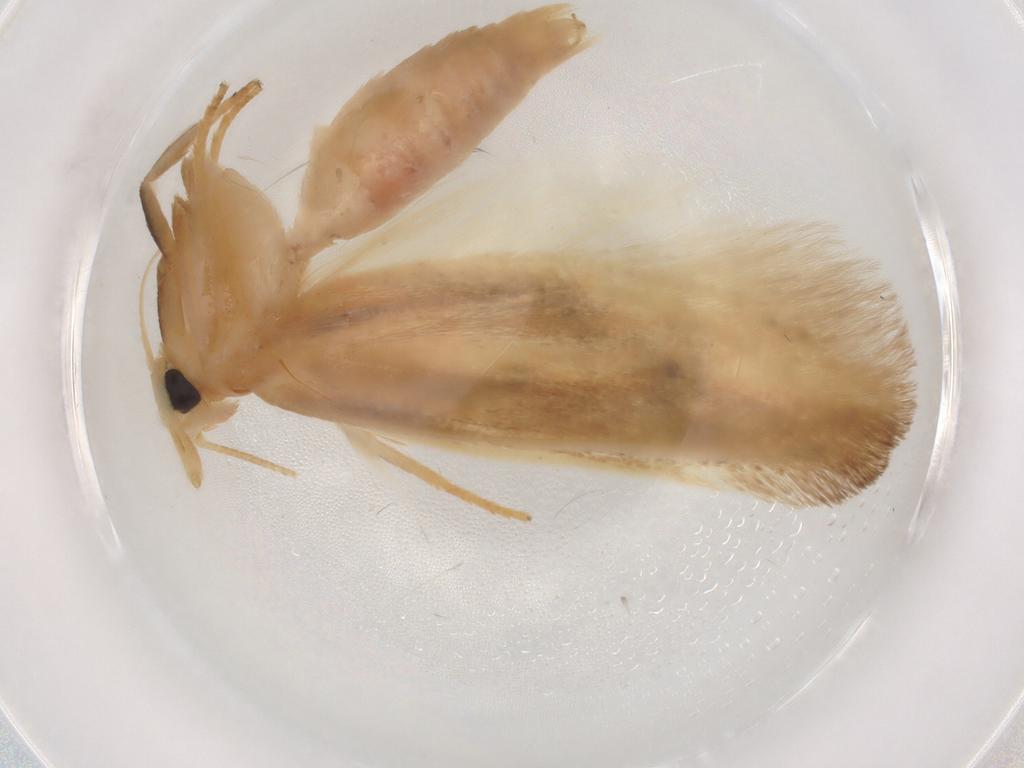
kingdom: Animalia
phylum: Arthropoda
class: Insecta
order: Lepidoptera
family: Geometridae
